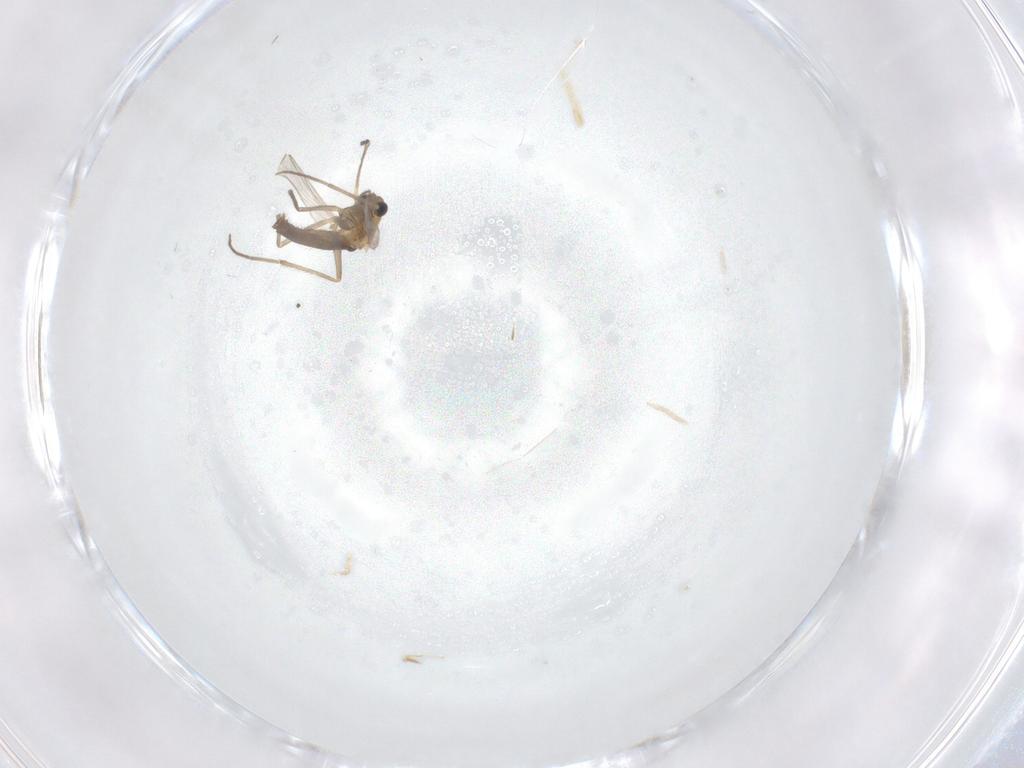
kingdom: Animalia
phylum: Arthropoda
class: Insecta
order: Diptera
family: Chironomidae
